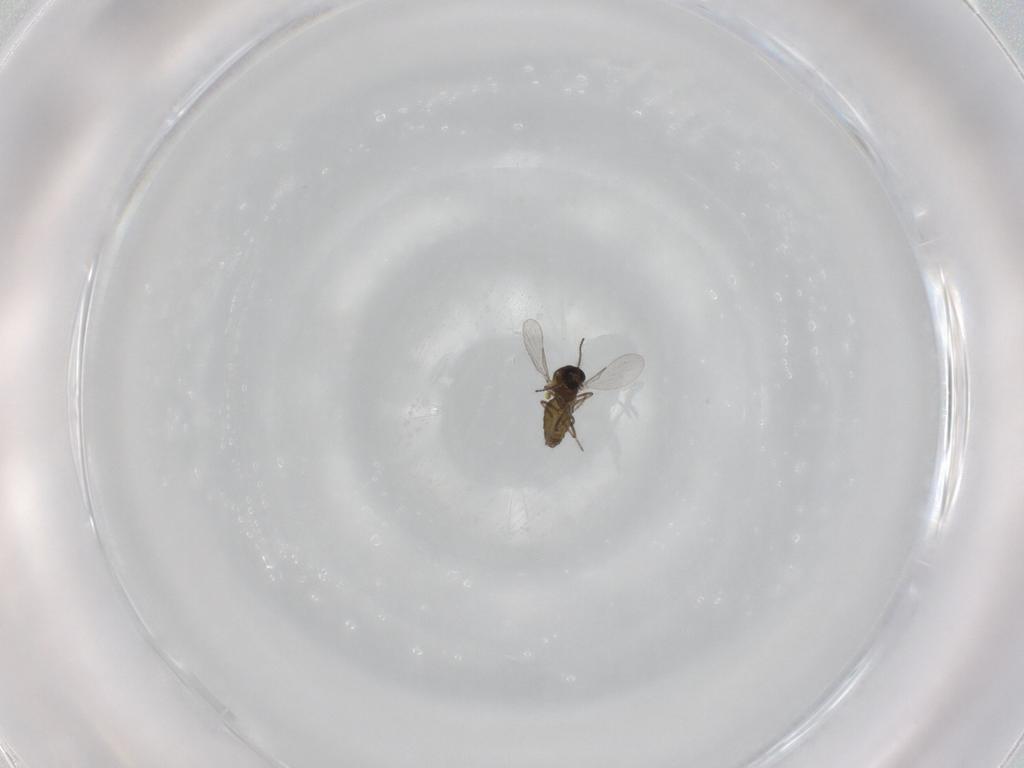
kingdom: Animalia
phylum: Arthropoda
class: Insecta
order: Diptera
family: Ceratopogonidae
